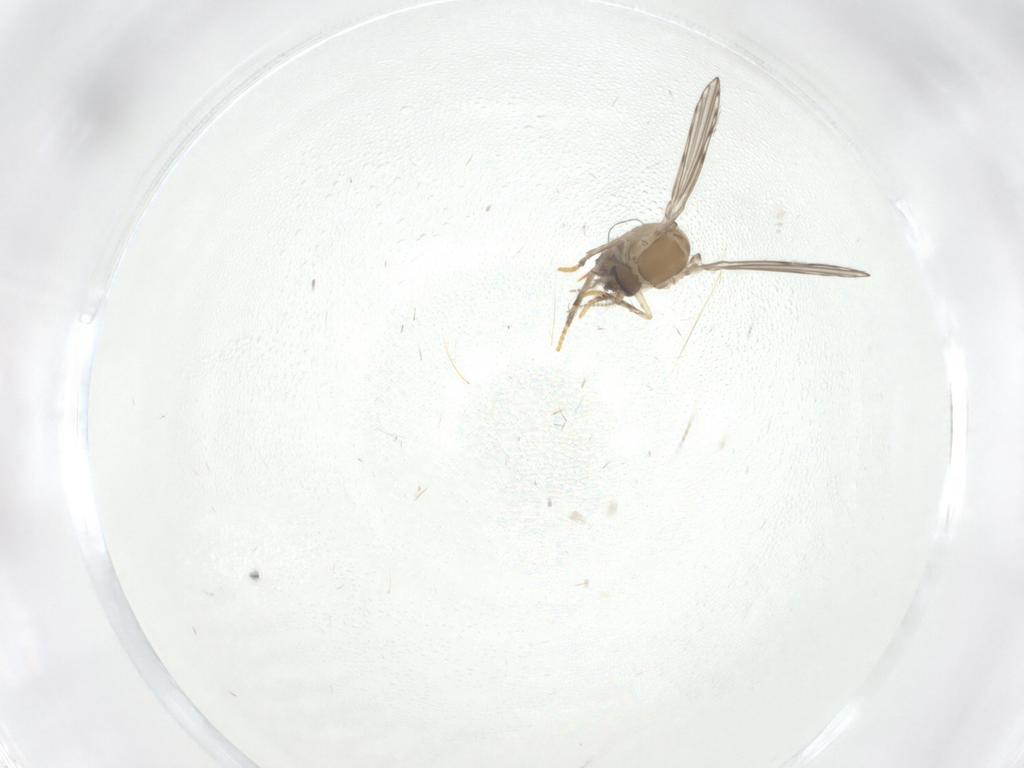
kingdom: Animalia
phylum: Arthropoda
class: Insecta
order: Diptera
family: Psychodidae
